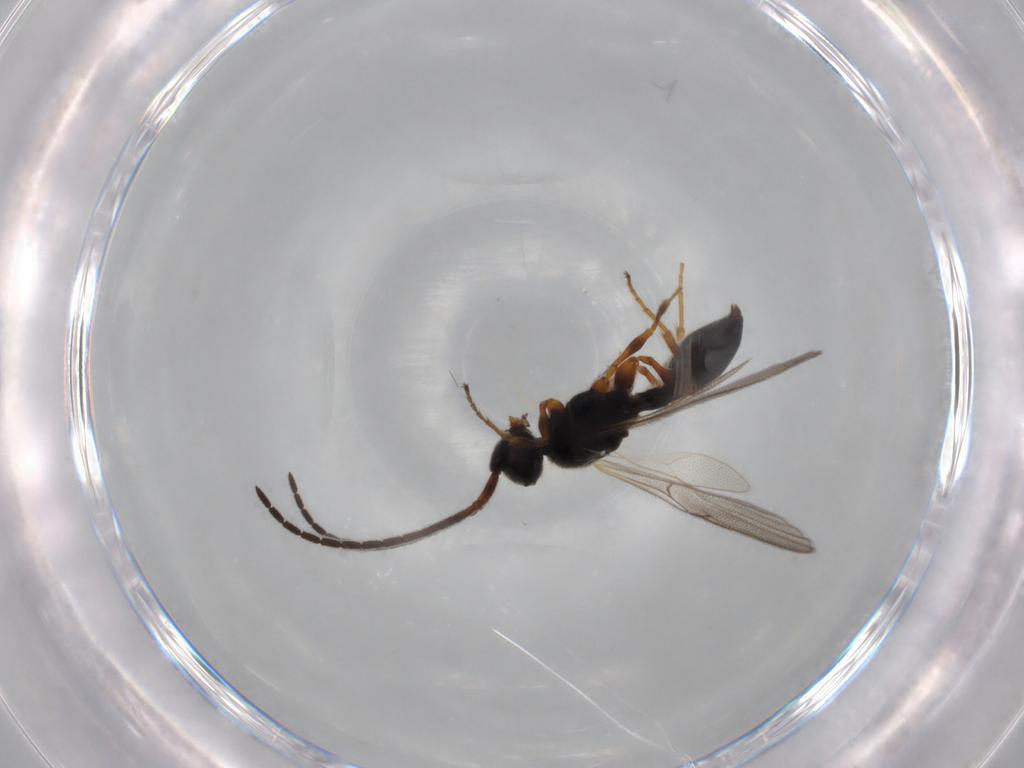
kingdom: Animalia
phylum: Arthropoda
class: Insecta
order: Hymenoptera
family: Diapriidae
